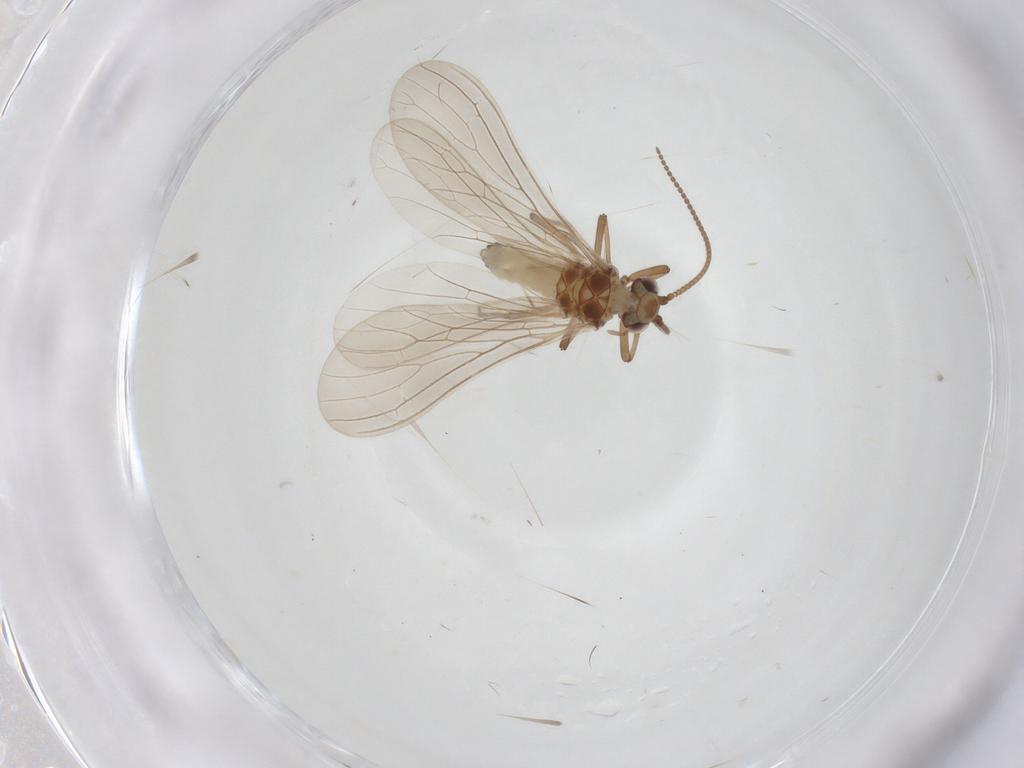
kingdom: Animalia
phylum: Arthropoda
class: Insecta
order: Neuroptera
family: Coniopterygidae
